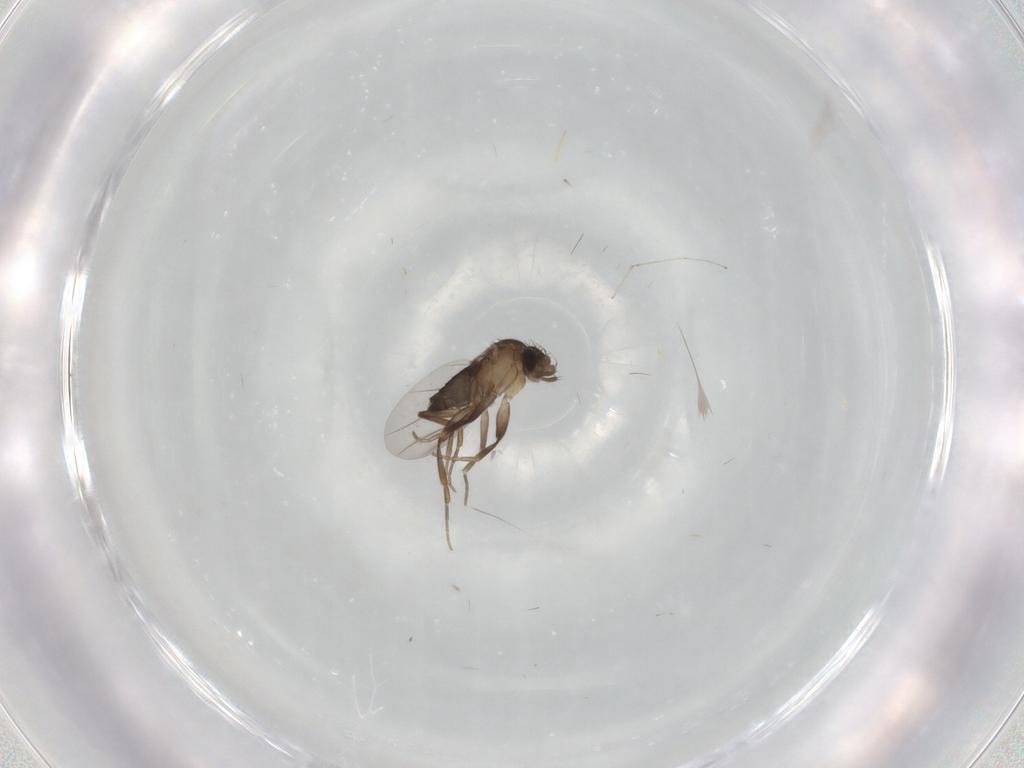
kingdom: Animalia
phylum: Arthropoda
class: Insecta
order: Diptera
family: Cecidomyiidae
